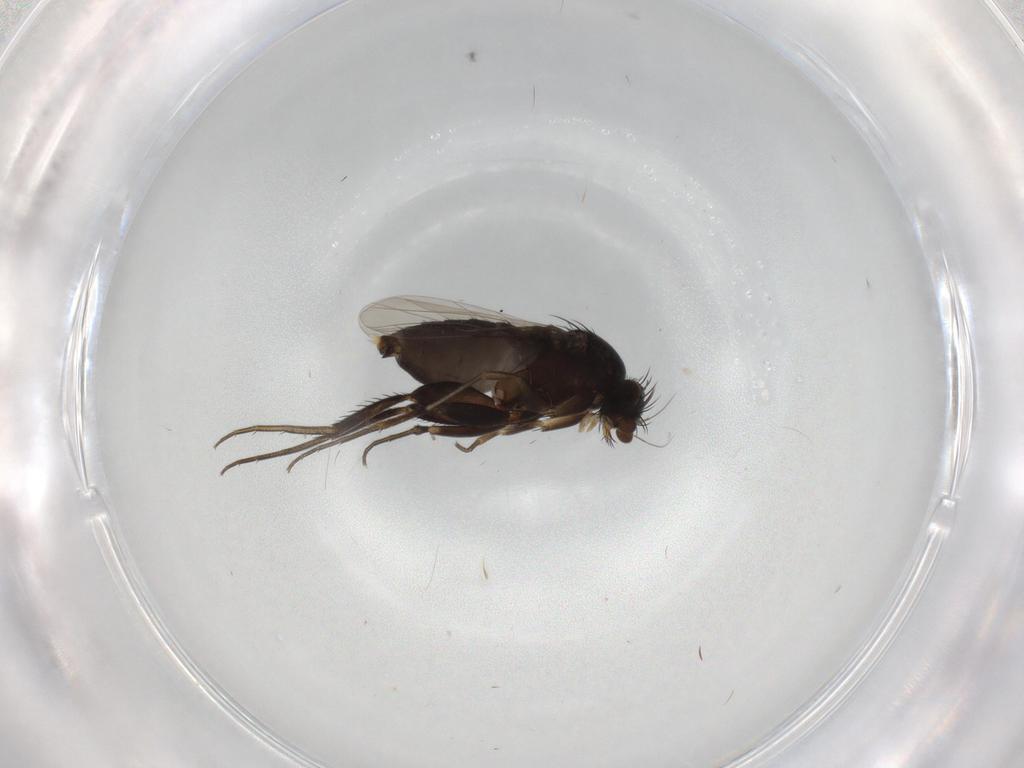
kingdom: Animalia
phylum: Arthropoda
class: Insecta
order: Diptera
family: Phoridae
